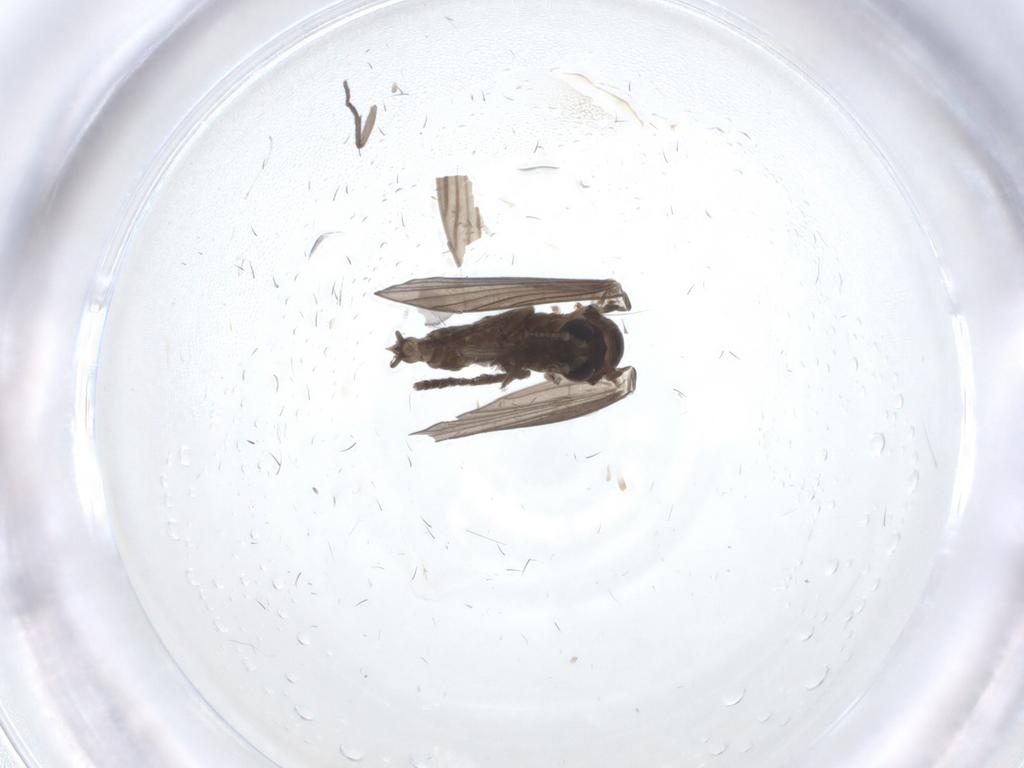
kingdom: Animalia
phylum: Arthropoda
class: Insecta
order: Diptera
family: Psychodidae
